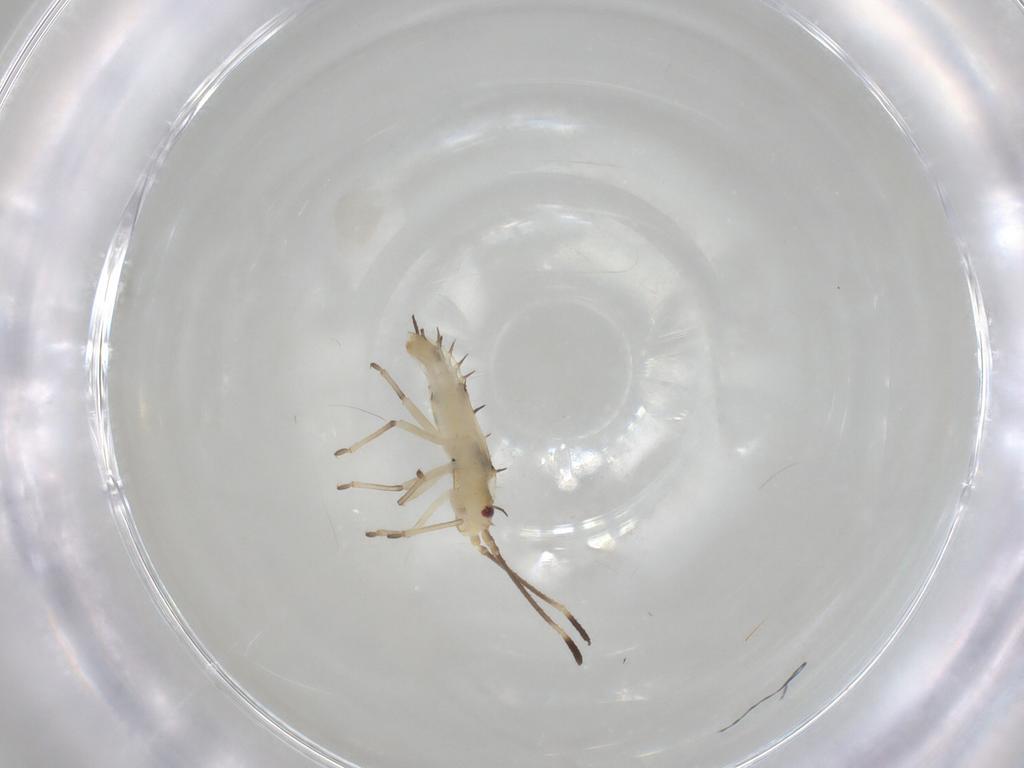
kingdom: Animalia
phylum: Arthropoda
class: Insecta
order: Hemiptera
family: Tingidae
